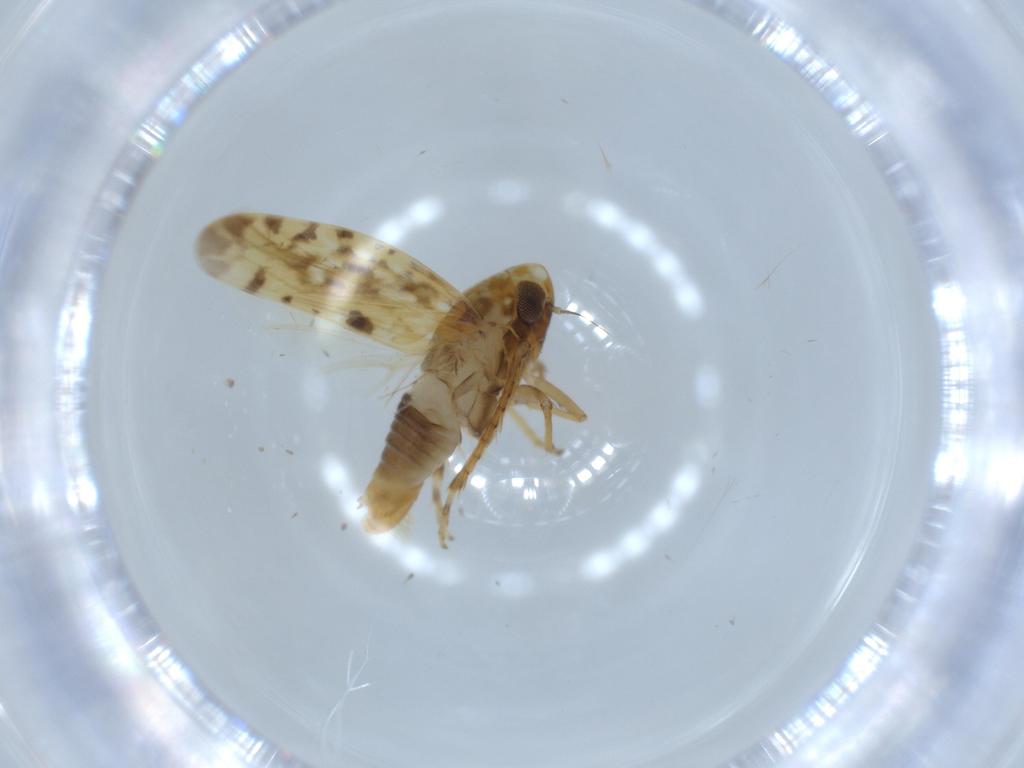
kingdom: Animalia
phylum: Arthropoda
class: Insecta
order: Hemiptera
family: Cicadellidae
